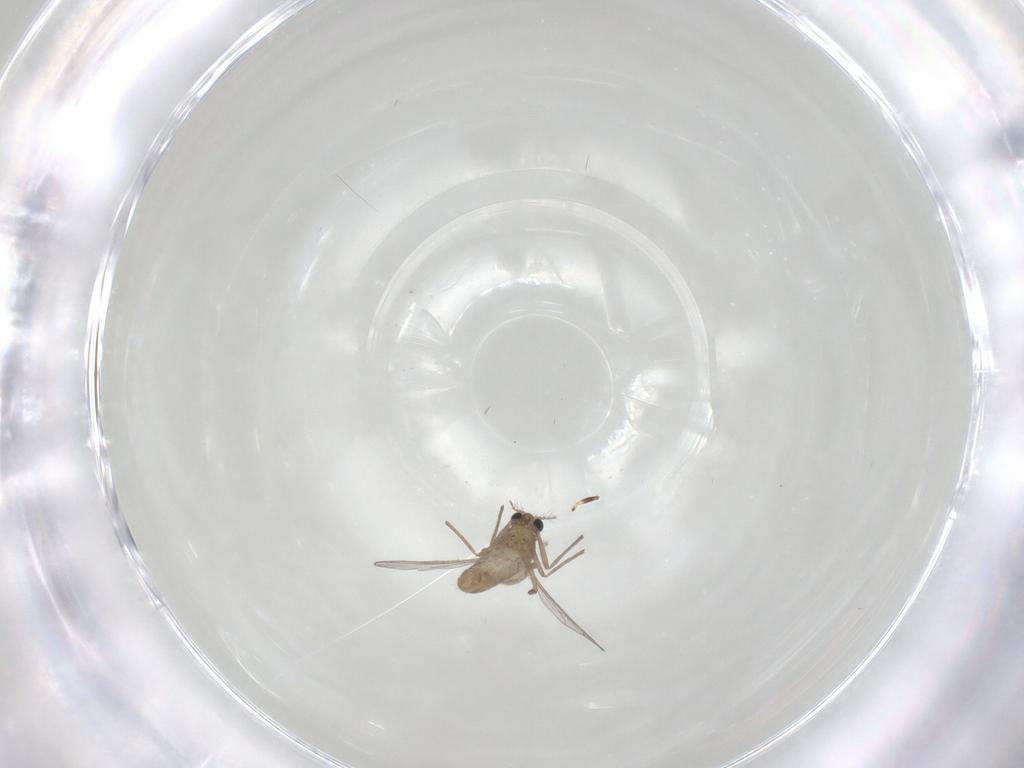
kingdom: Animalia
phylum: Arthropoda
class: Insecta
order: Diptera
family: Chironomidae
